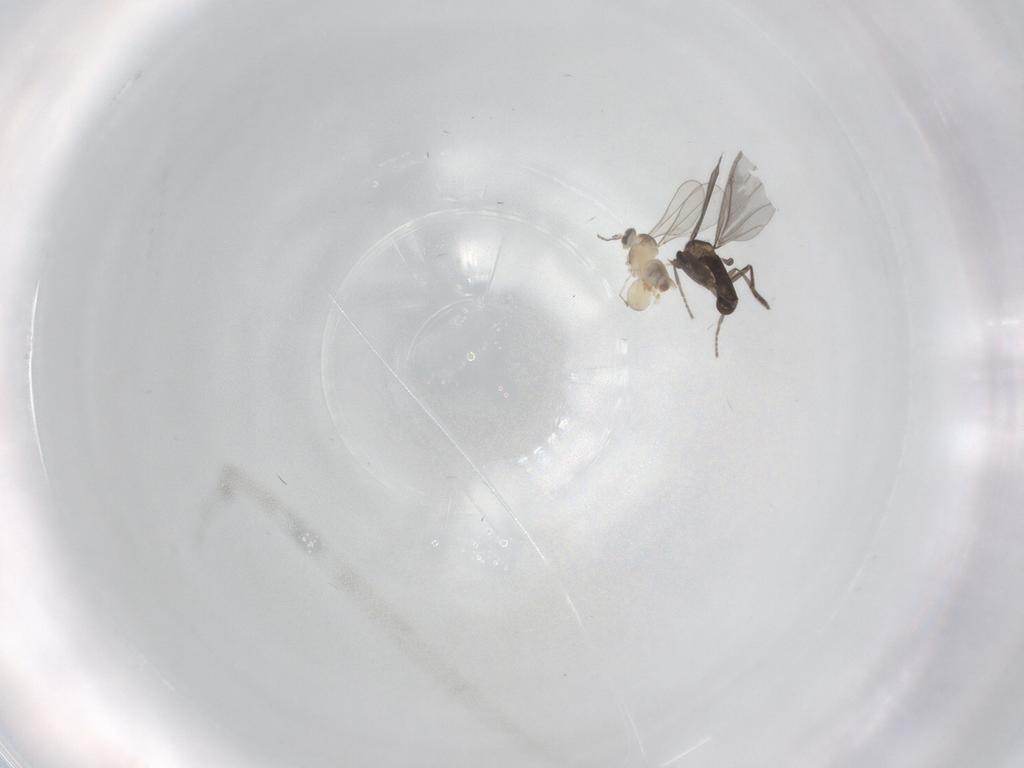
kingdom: Animalia
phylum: Arthropoda
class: Insecta
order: Diptera
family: Cecidomyiidae
